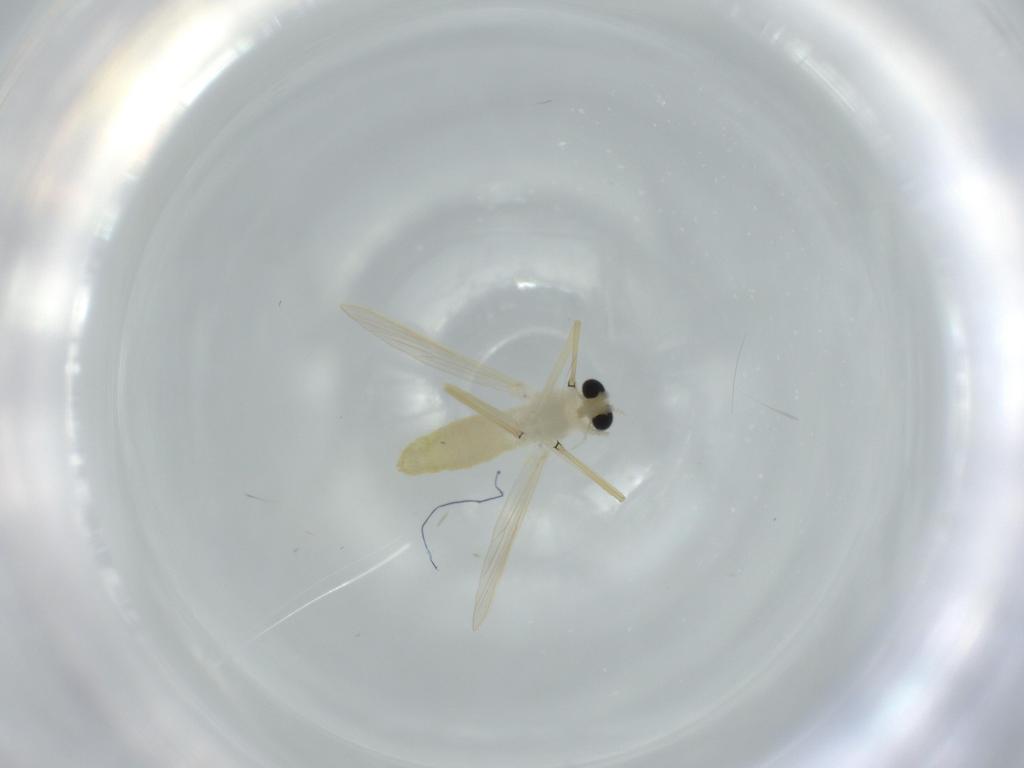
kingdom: Animalia
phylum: Arthropoda
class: Insecta
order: Diptera
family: Chironomidae
